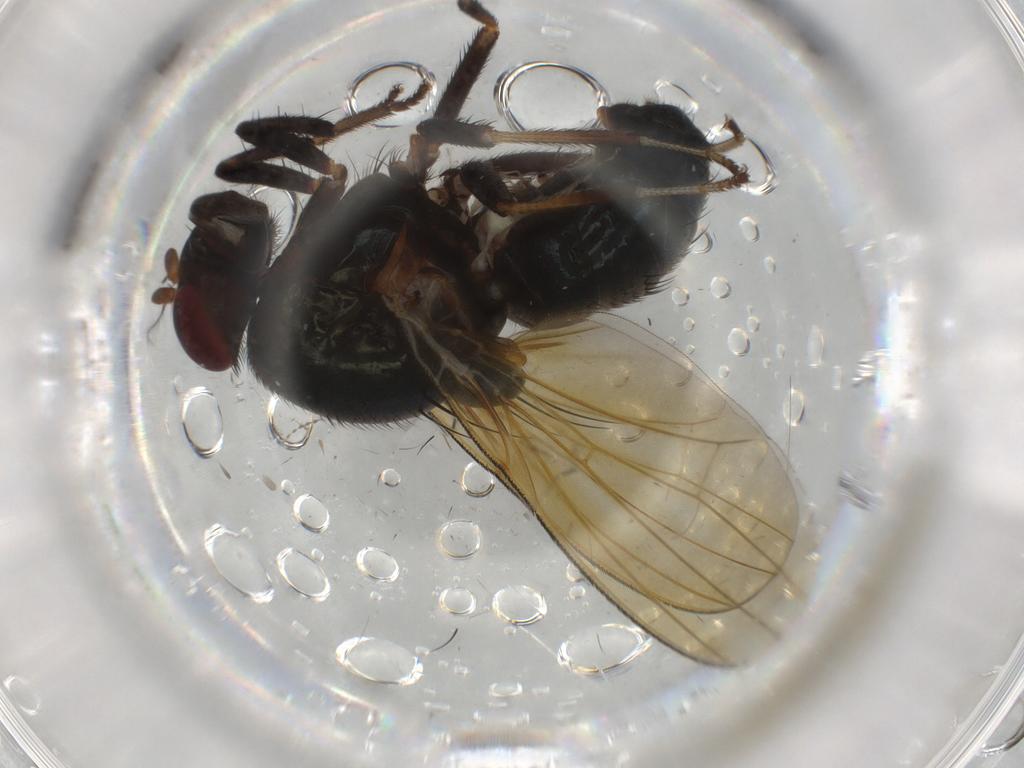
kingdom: Animalia
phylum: Arthropoda
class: Insecta
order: Diptera
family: Sciaridae
